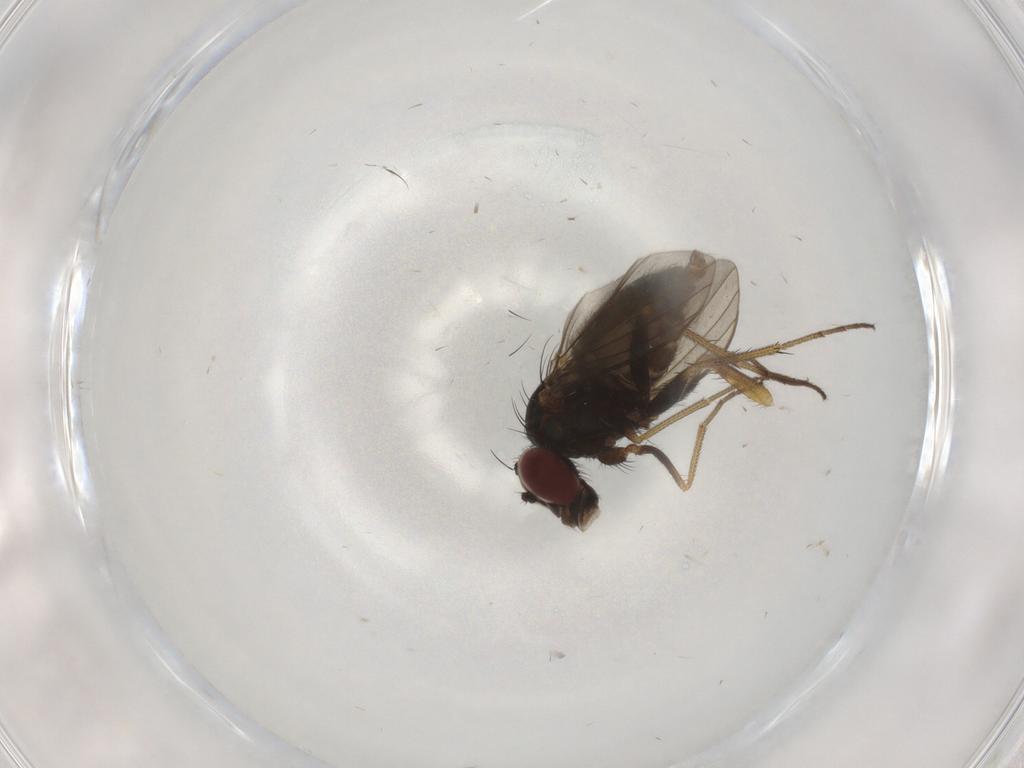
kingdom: Animalia
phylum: Arthropoda
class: Insecta
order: Diptera
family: Dolichopodidae
